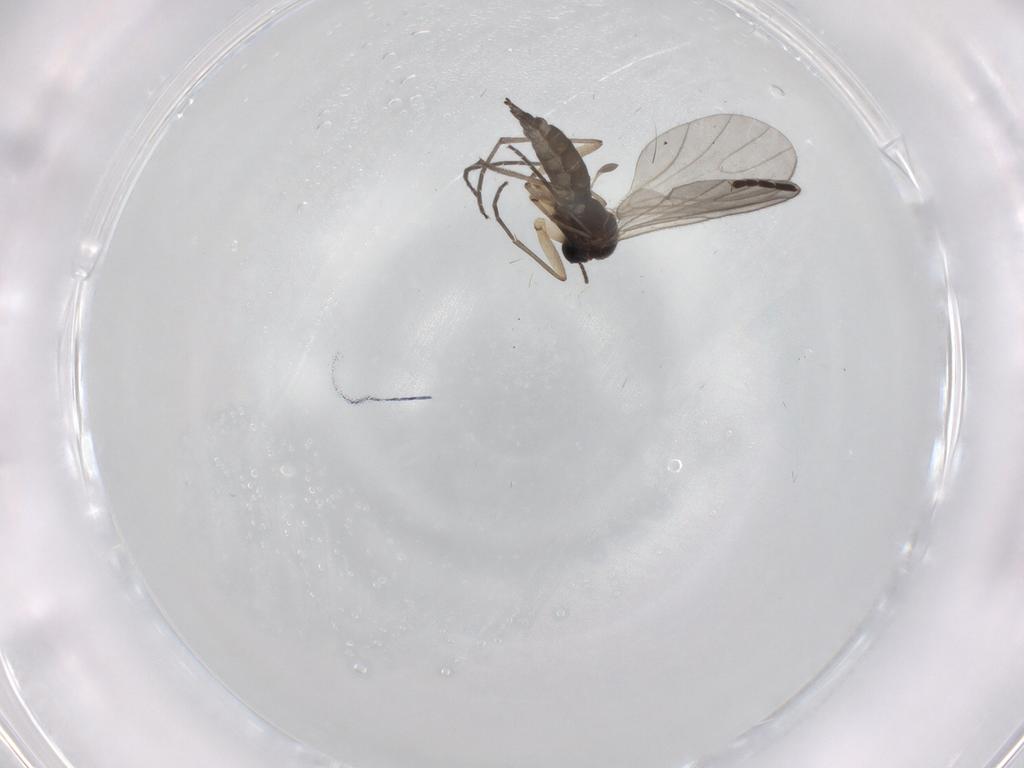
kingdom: Animalia
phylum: Arthropoda
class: Insecta
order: Diptera
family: Sciaridae
